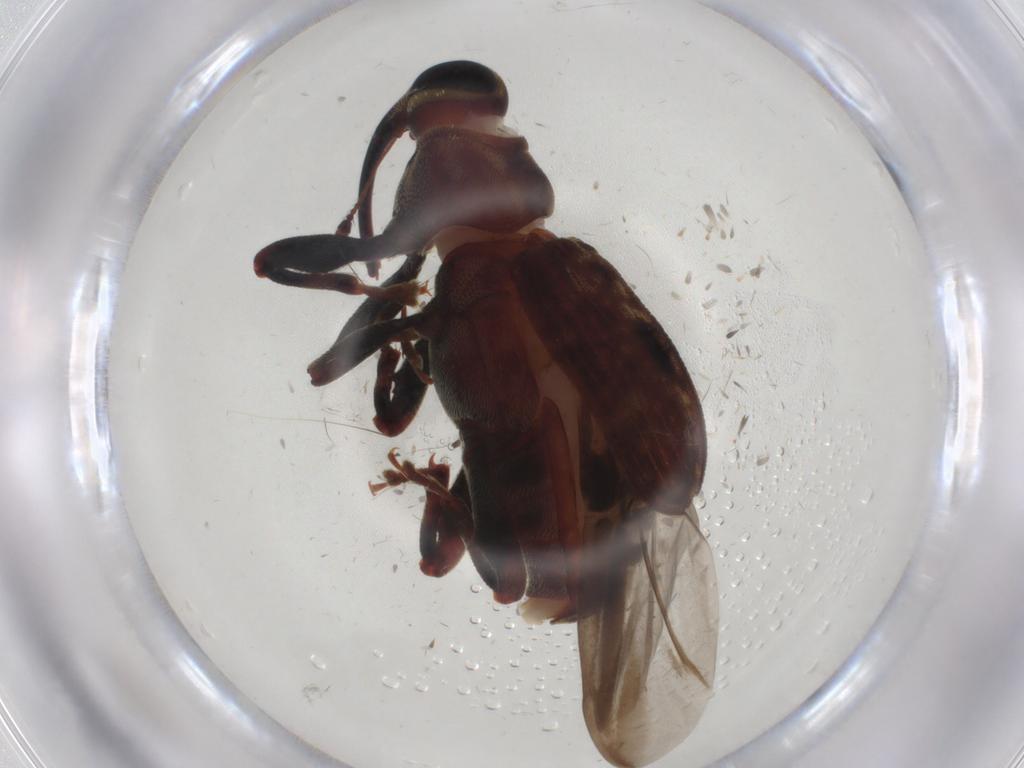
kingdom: Animalia
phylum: Arthropoda
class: Insecta
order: Coleoptera
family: Curculionidae
